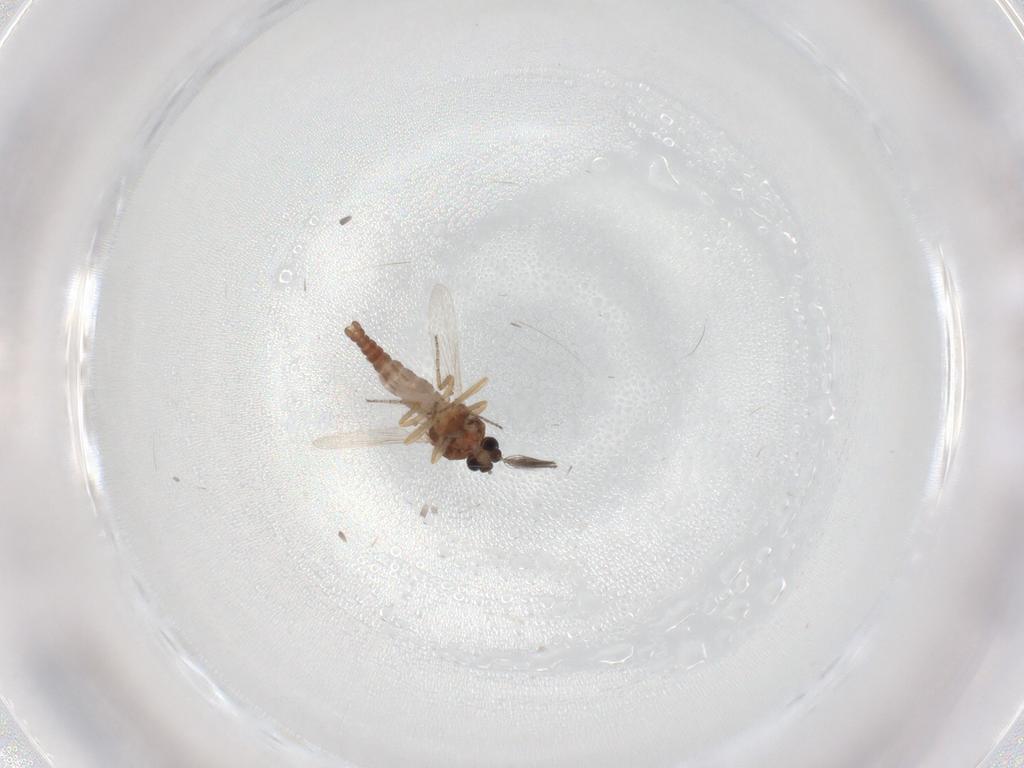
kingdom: Animalia
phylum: Arthropoda
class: Insecta
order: Diptera
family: Ceratopogonidae
